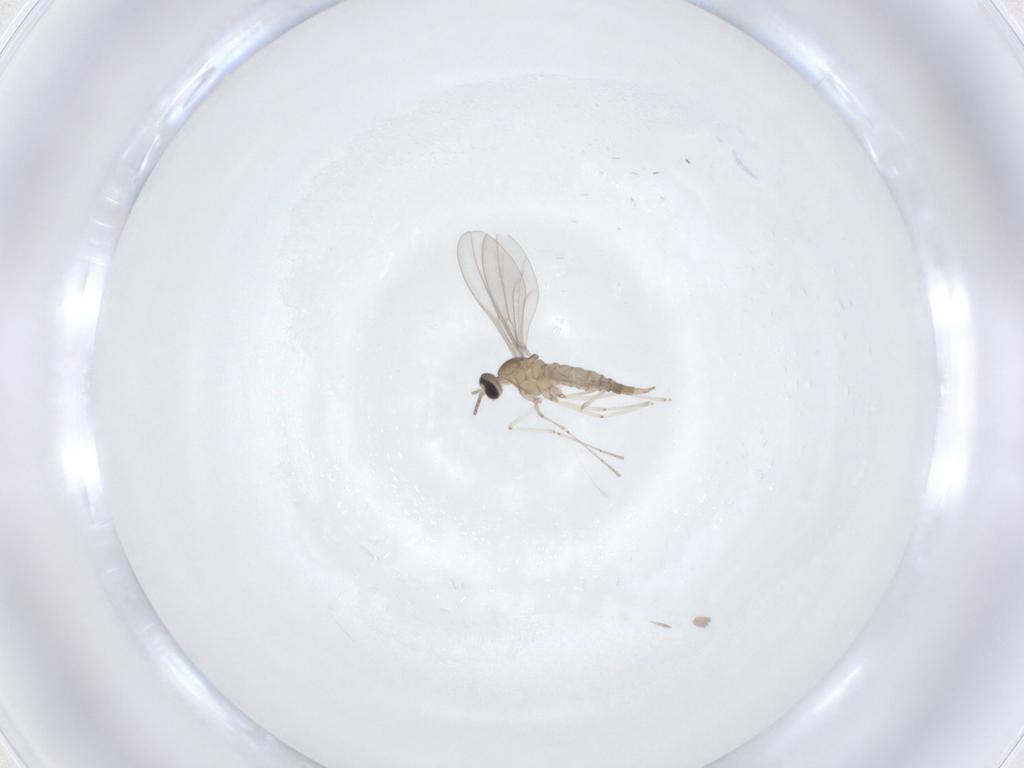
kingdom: Animalia
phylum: Arthropoda
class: Insecta
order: Diptera
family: Cecidomyiidae
